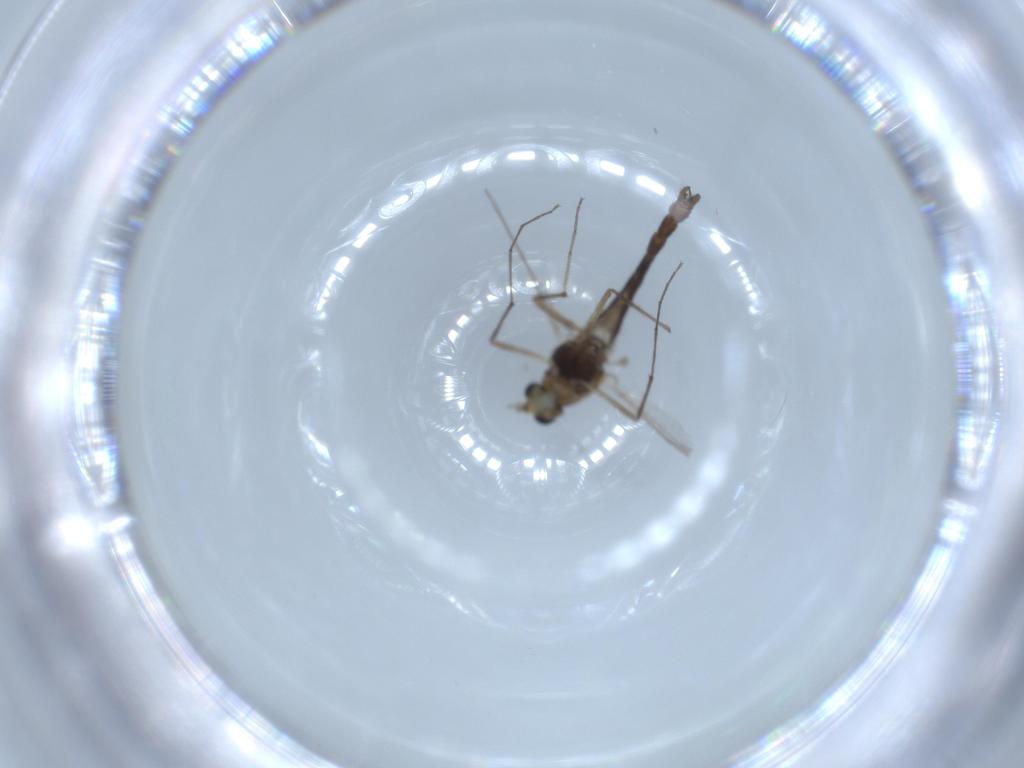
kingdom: Animalia
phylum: Arthropoda
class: Insecta
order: Diptera
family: Chironomidae
